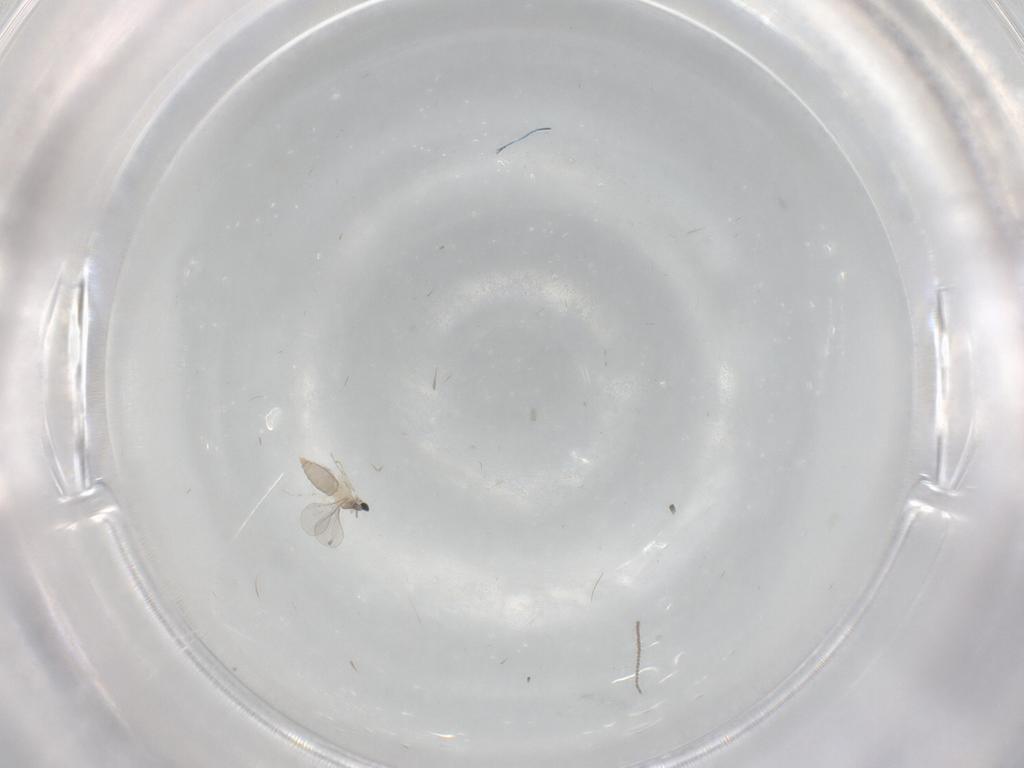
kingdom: Animalia
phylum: Arthropoda
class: Insecta
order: Diptera
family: Cecidomyiidae
